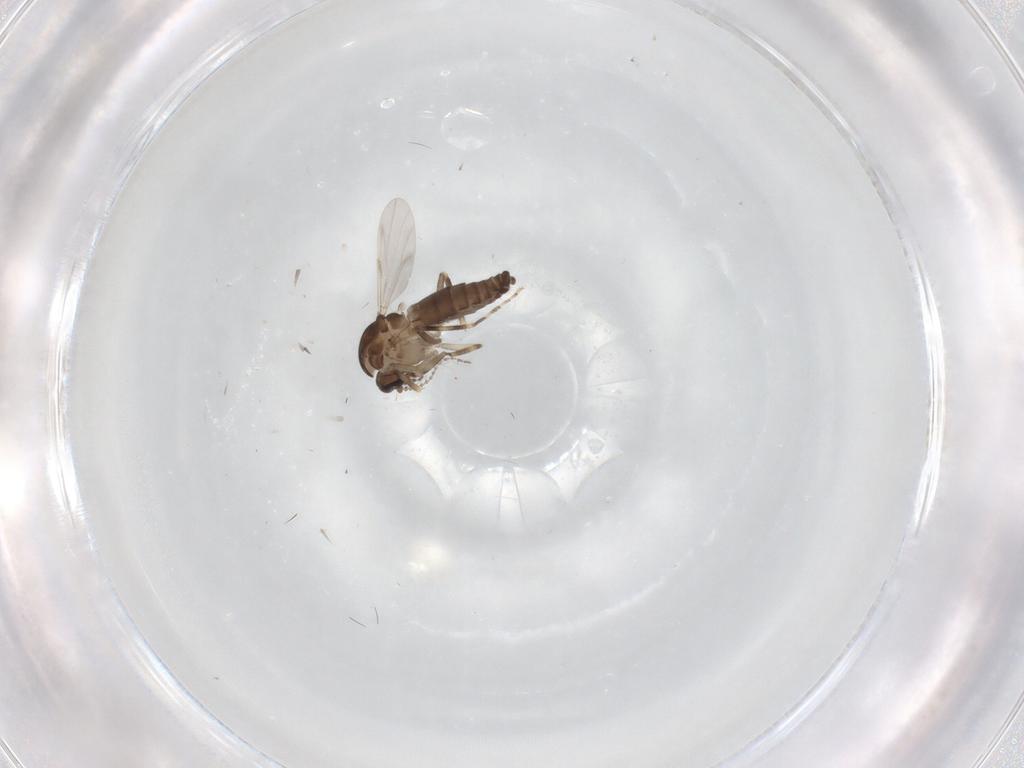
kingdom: Animalia
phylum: Arthropoda
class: Insecta
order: Diptera
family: Ceratopogonidae
